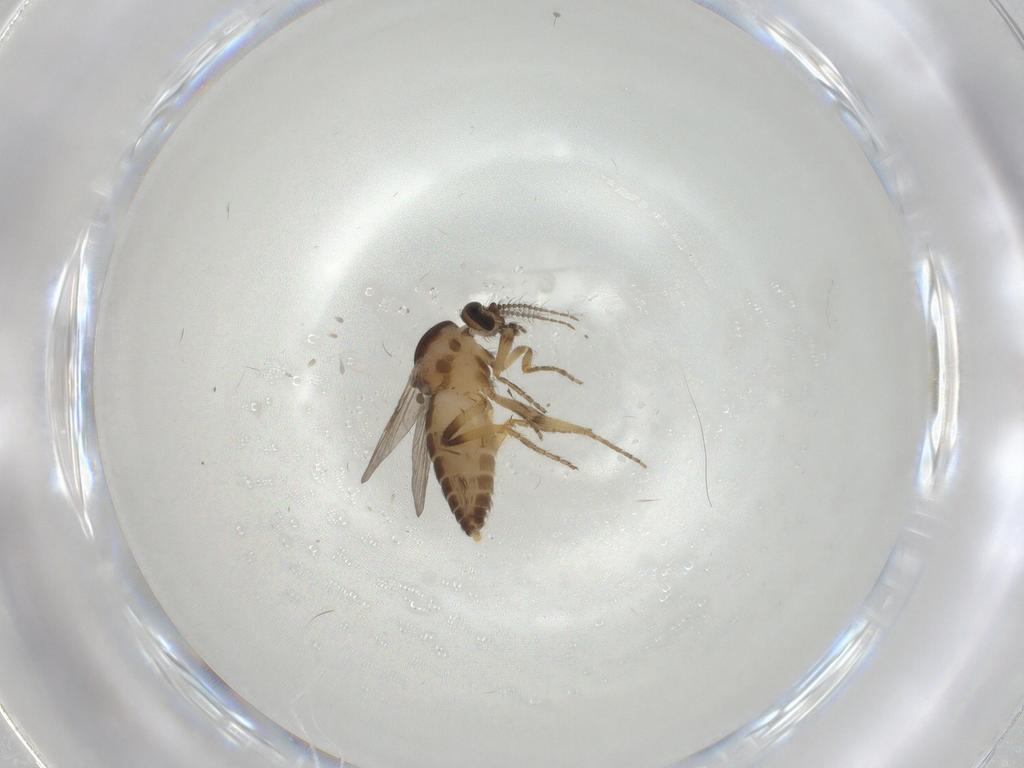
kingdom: Animalia
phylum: Arthropoda
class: Insecta
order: Diptera
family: Ceratopogonidae
